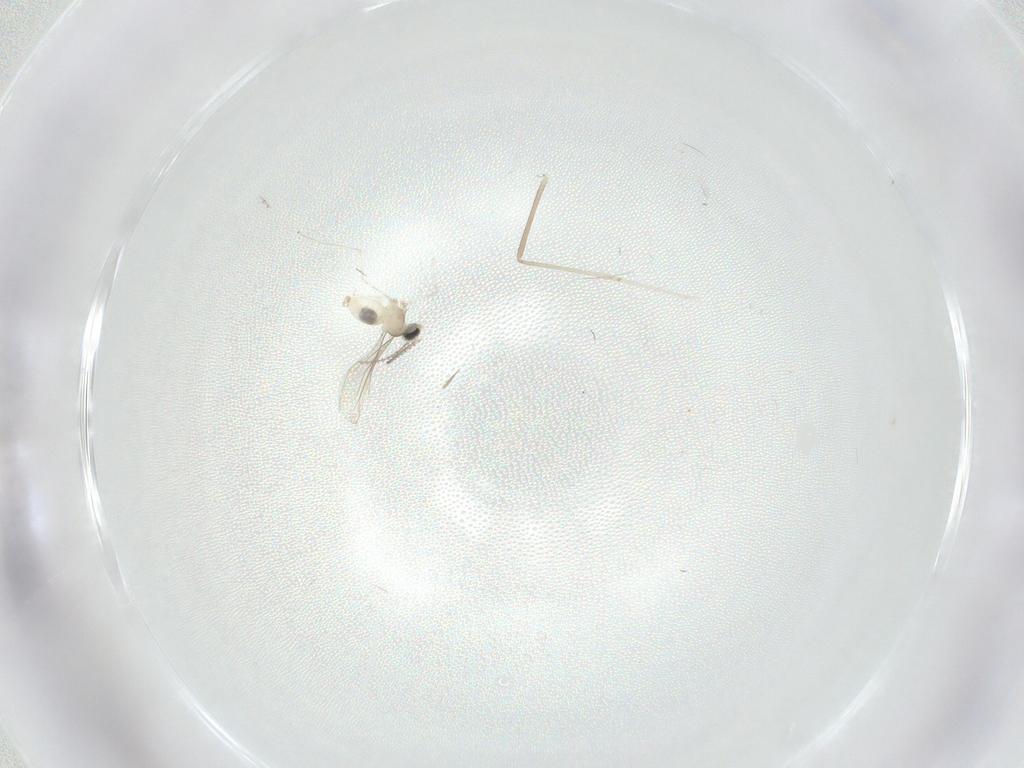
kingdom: Animalia
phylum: Arthropoda
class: Insecta
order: Diptera
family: Cecidomyiidae
